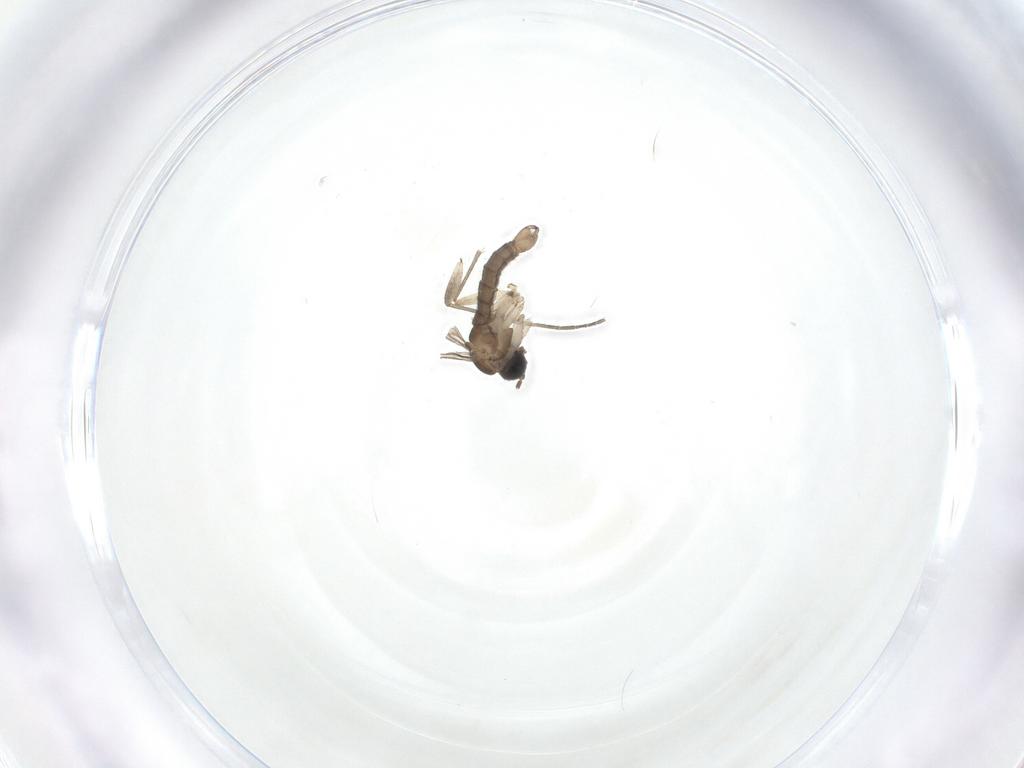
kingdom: Animalia
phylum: Arthropoda
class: Insecta
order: Diptera
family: Sciaridae
